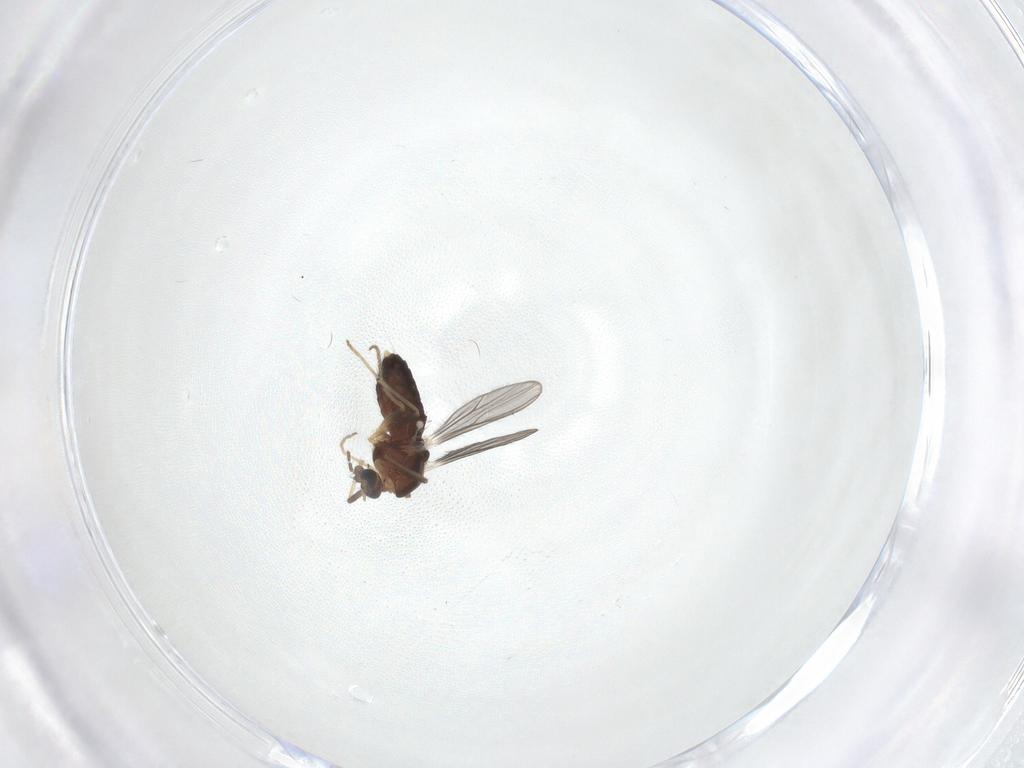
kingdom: Animalia
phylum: Arthropoda
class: Insecta
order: Diptera
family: Chironomidae
